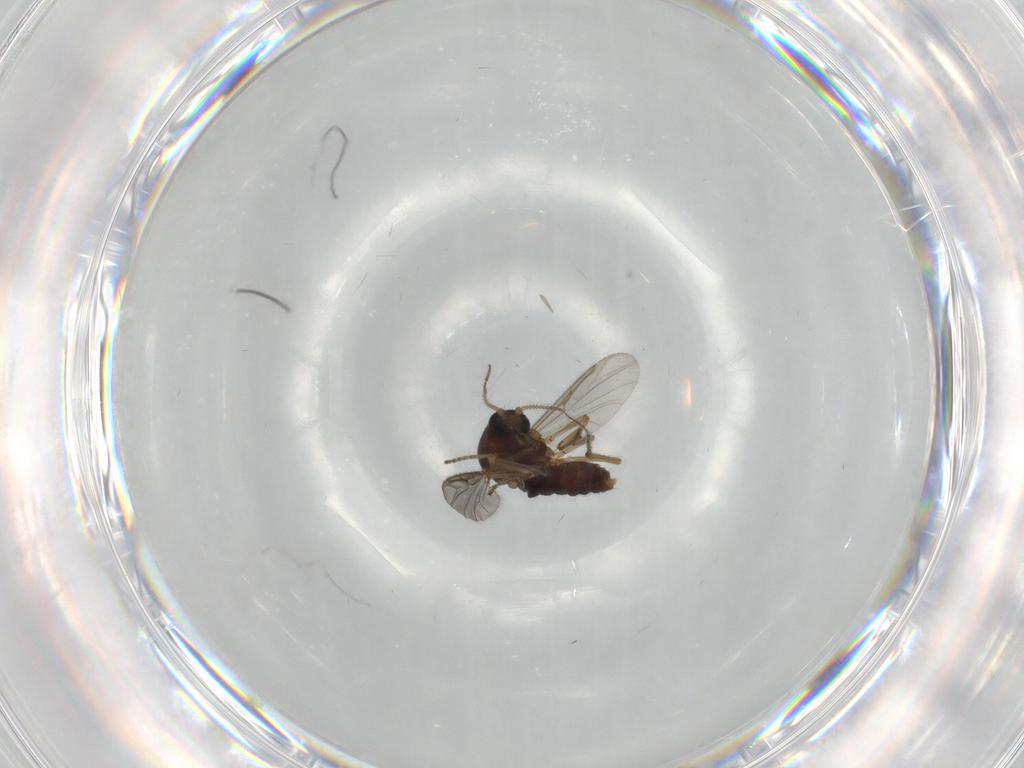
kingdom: Animalia
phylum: Arthropoda
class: Insecta
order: Diptera
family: Ceratopogonidae
